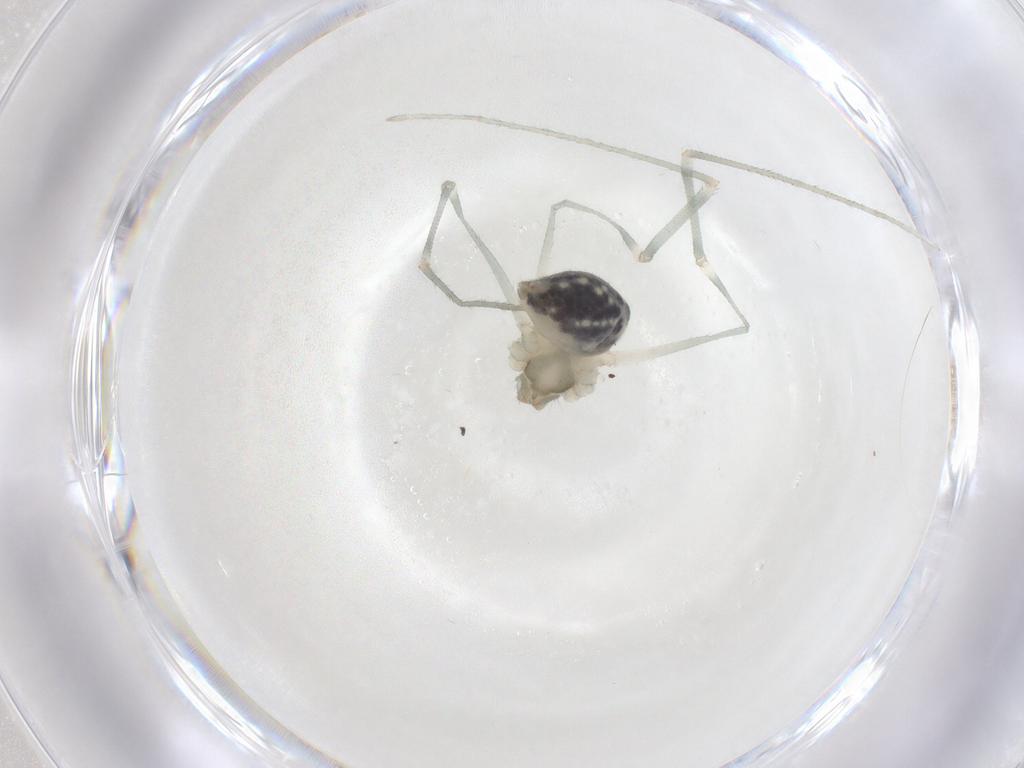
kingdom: Animalia
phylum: Arthropoda
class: Arachnida
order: Araneae
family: Pholcidae
